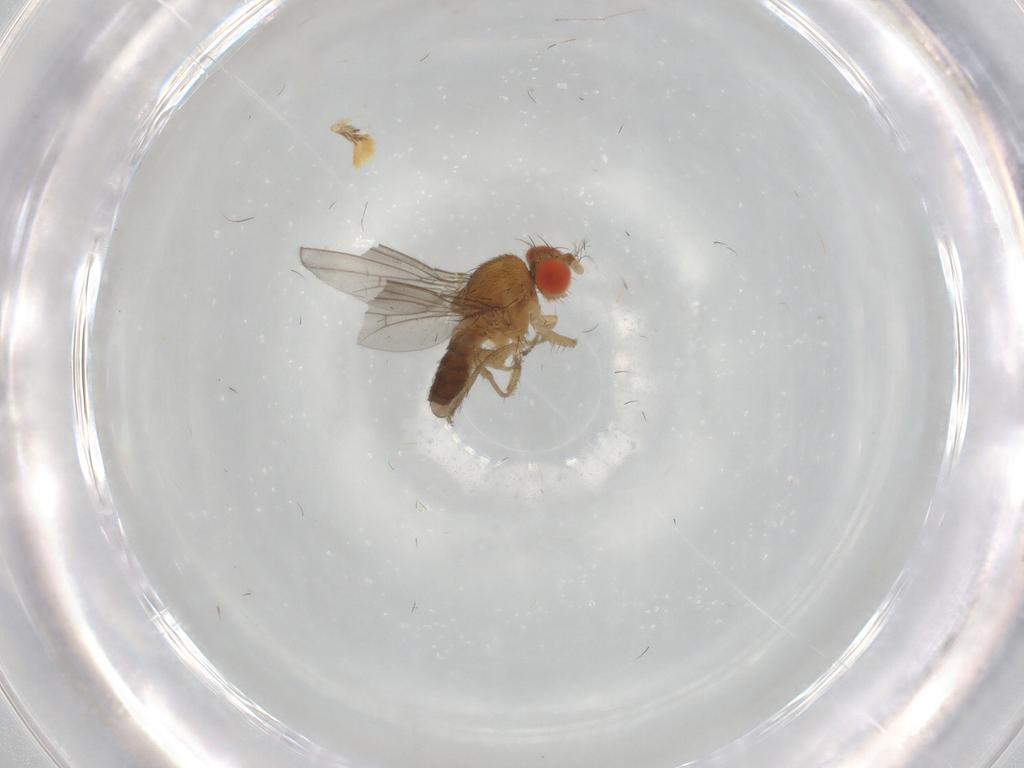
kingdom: Animalia
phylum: Arthropoda
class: Insecta
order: Diptera
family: Drosophilidae
